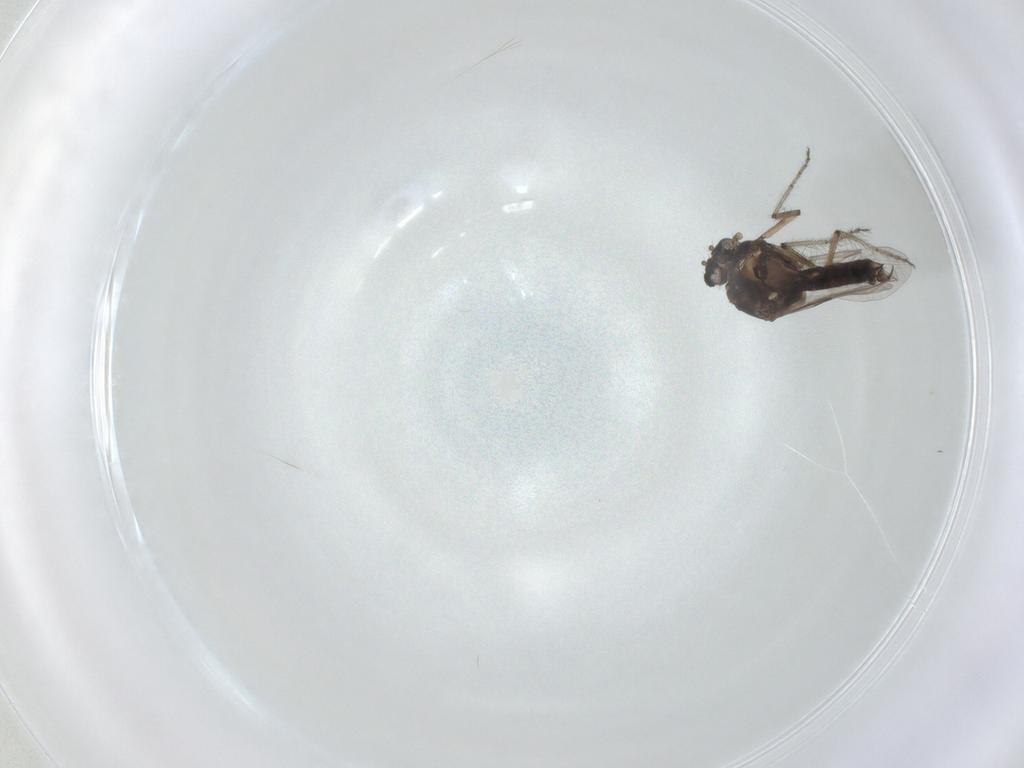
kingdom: Animalia
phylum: Arthropoda
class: Insecta
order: Diptera
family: Ceratopogonidae
